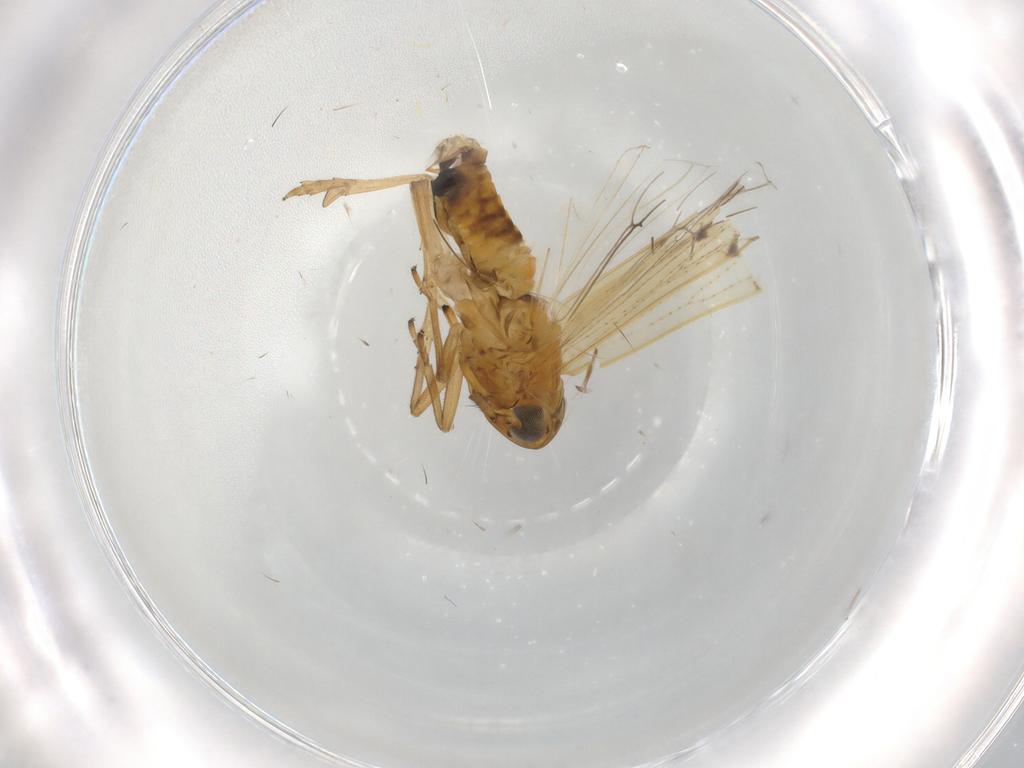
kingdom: Animalia
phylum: Arthropoda
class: Insecta
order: Hemiptera
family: Delphacidae
